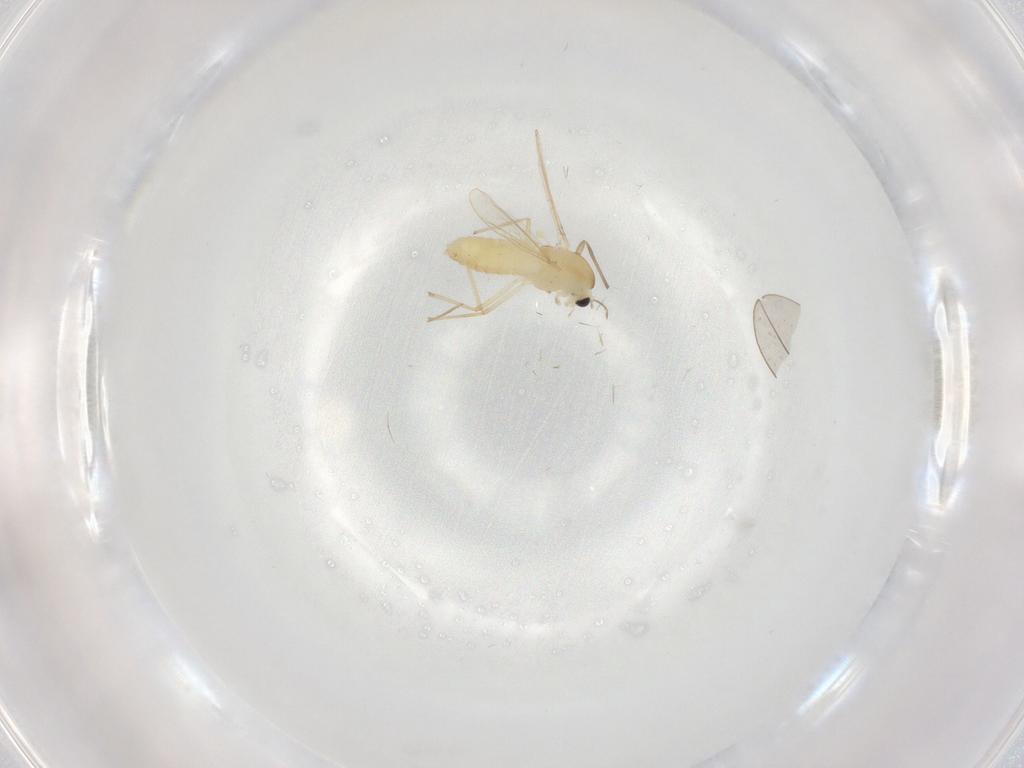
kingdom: Animalia
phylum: Arthropoda
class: Insecta
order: Diptera
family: Chironomidae
